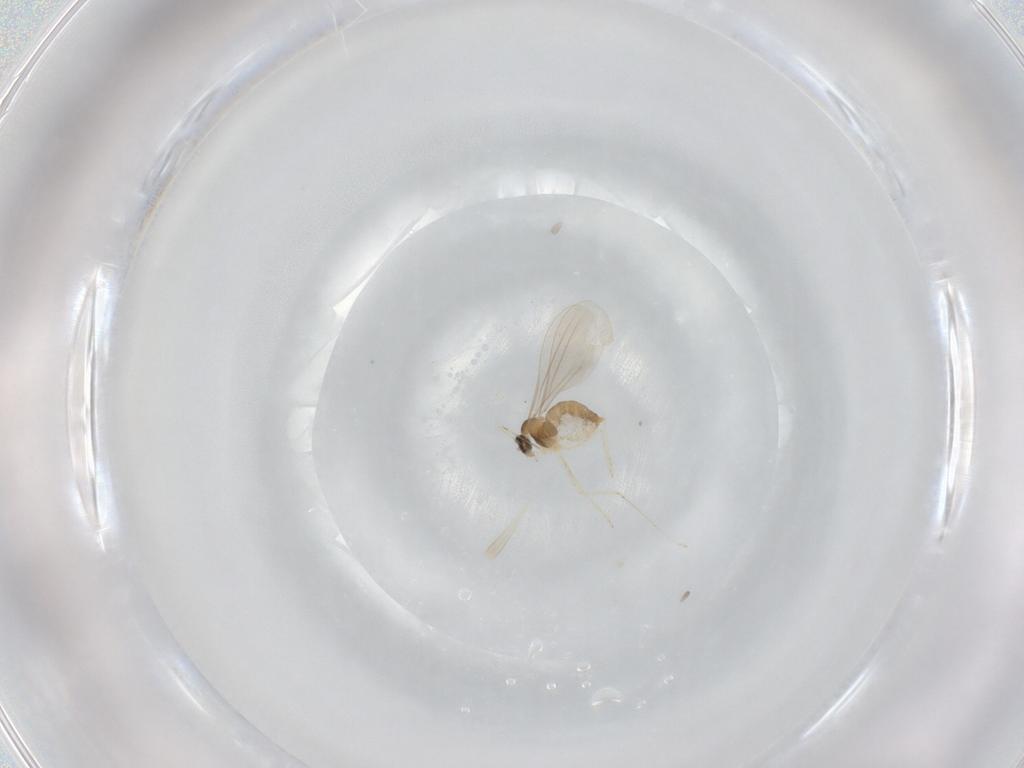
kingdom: Animalia
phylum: Arthropoda
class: Insecta
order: Diptera
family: Cecidomyiidae
